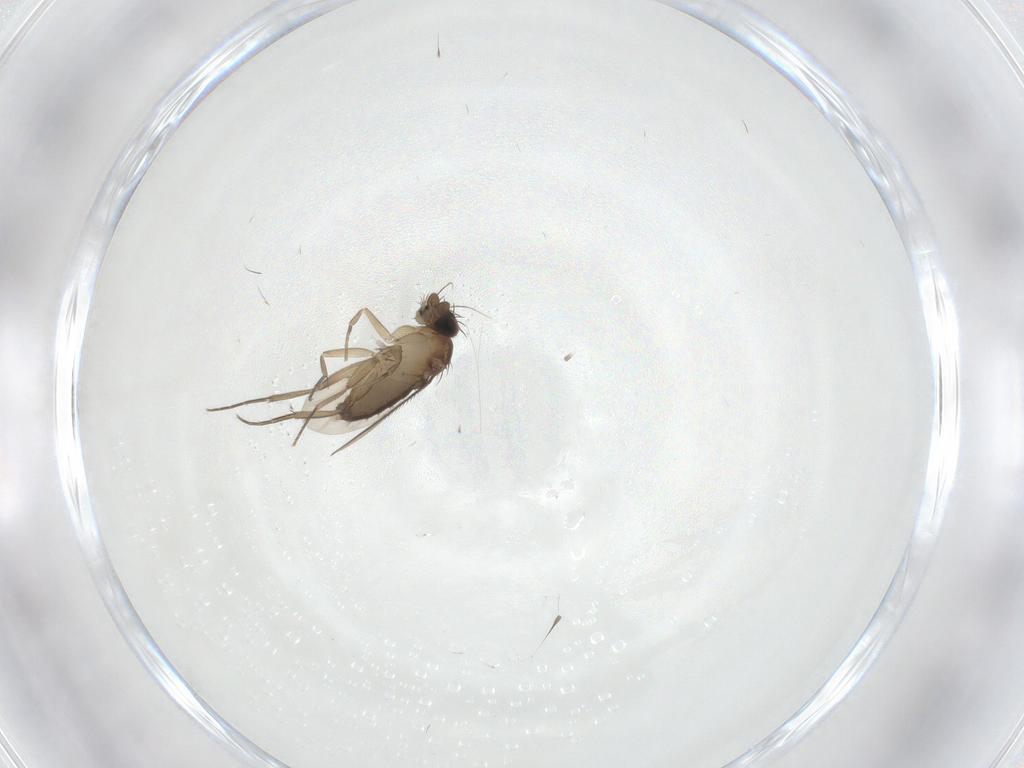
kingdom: Animalia
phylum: Arthropoda
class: Insecta
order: Diptera
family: Phoridae
